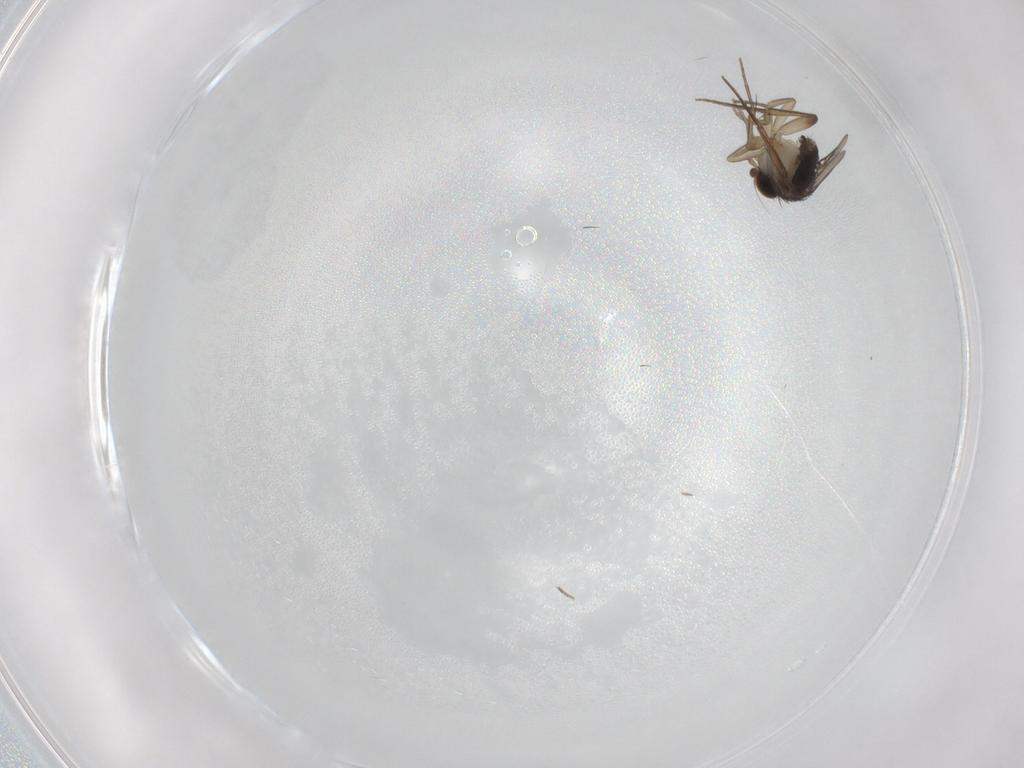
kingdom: Animalia
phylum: Arthropoda
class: Insecta
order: Diptera
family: Phoridae
